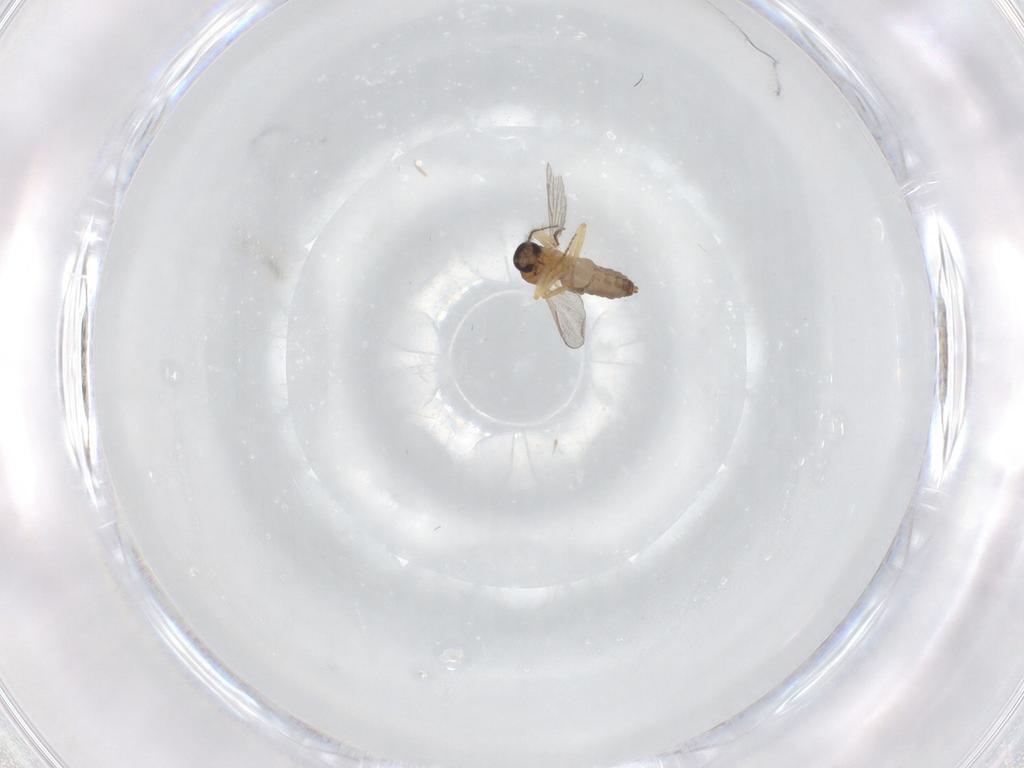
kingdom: Animalia
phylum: Arthropoda
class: Insecta
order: Diptera
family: Ceratopogonidae
